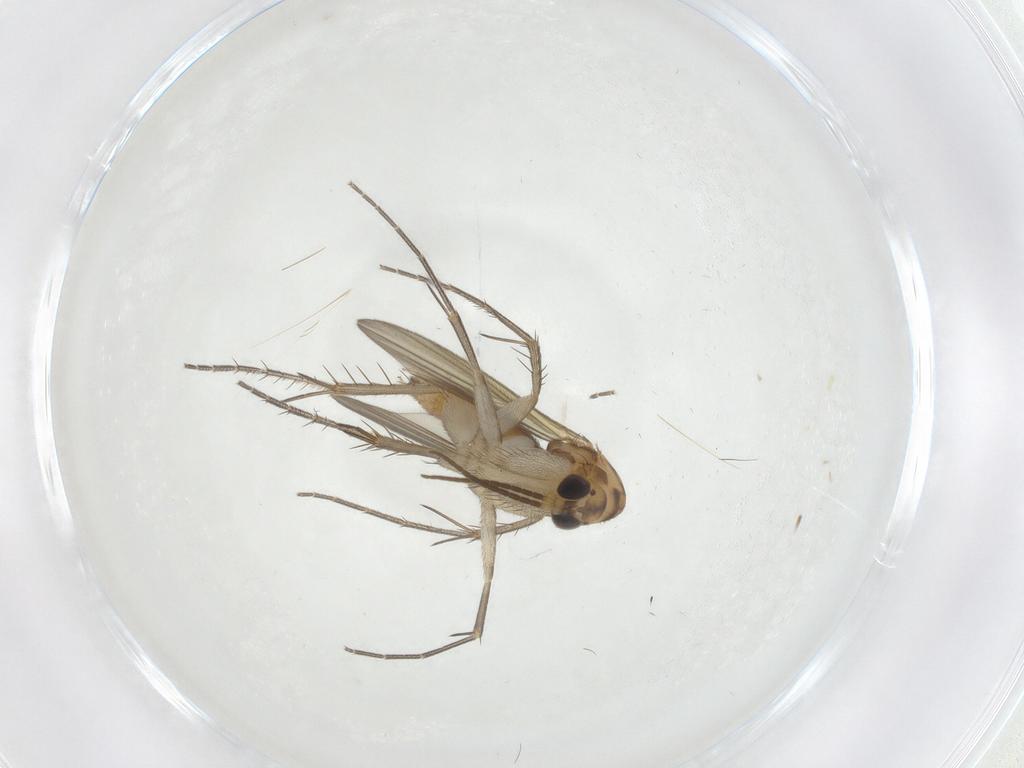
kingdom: Animalia
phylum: Arthropoda
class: Insecta
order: Diptera
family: Mycetophilidae
